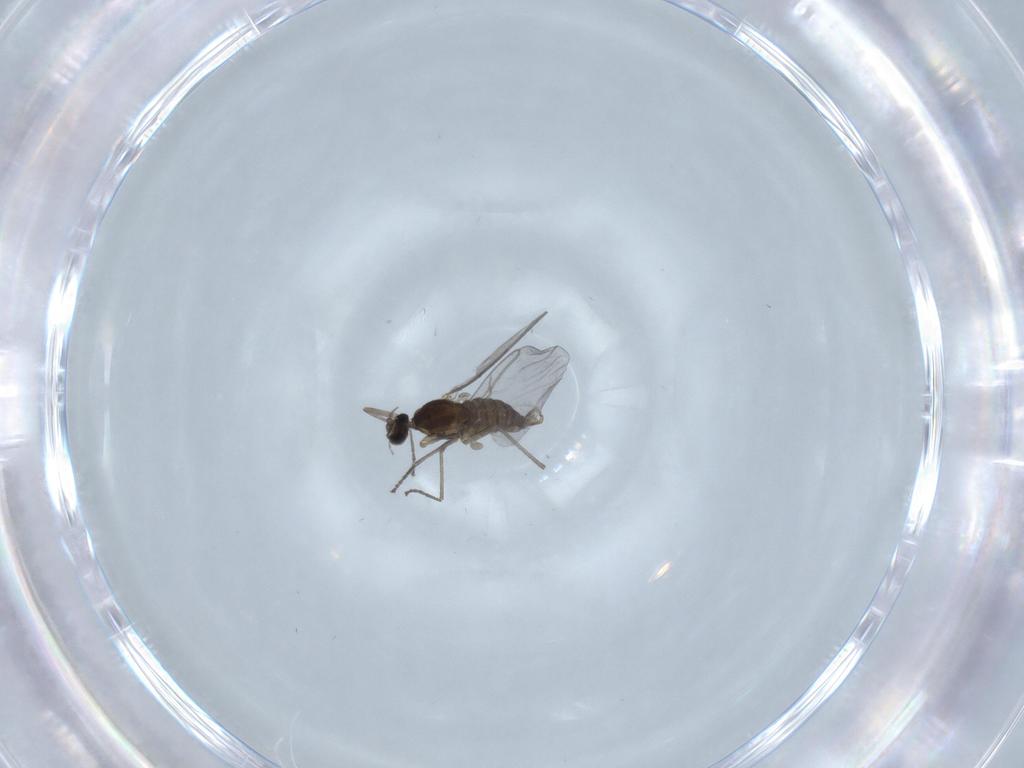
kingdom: Animalia
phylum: Arthropoda
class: Insecta
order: Diptera
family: Cecidomyiidae
